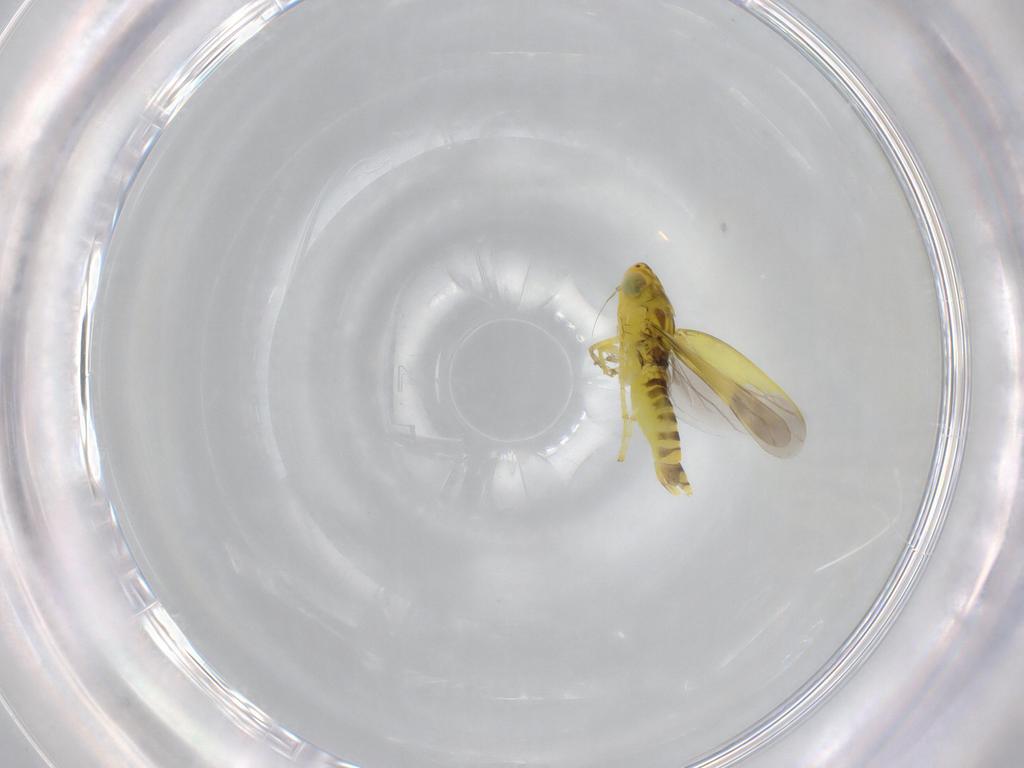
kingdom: Animalia
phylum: Arthropoda
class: Insecta
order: Hemiptera
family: Cicadellidae
